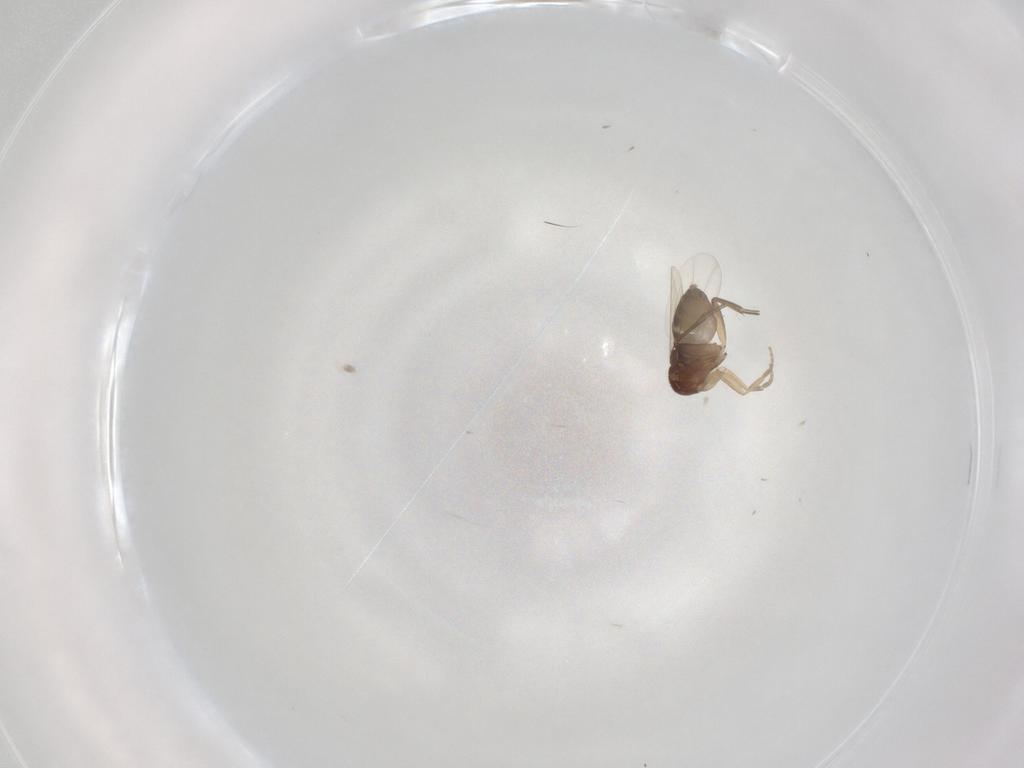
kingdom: Animalia
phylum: Arthropoda
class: Insecta
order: Diptera
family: Phoridae
